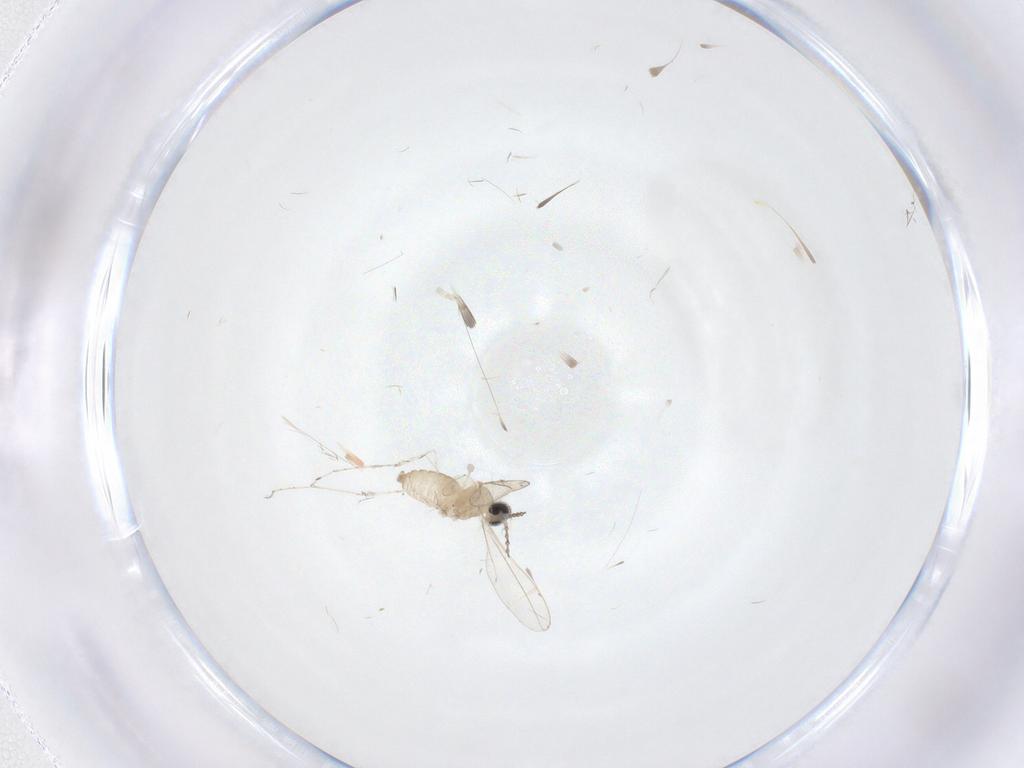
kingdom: Animalia
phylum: Arthropoda
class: Insecta
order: Diptera
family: Cecidomyiidae
